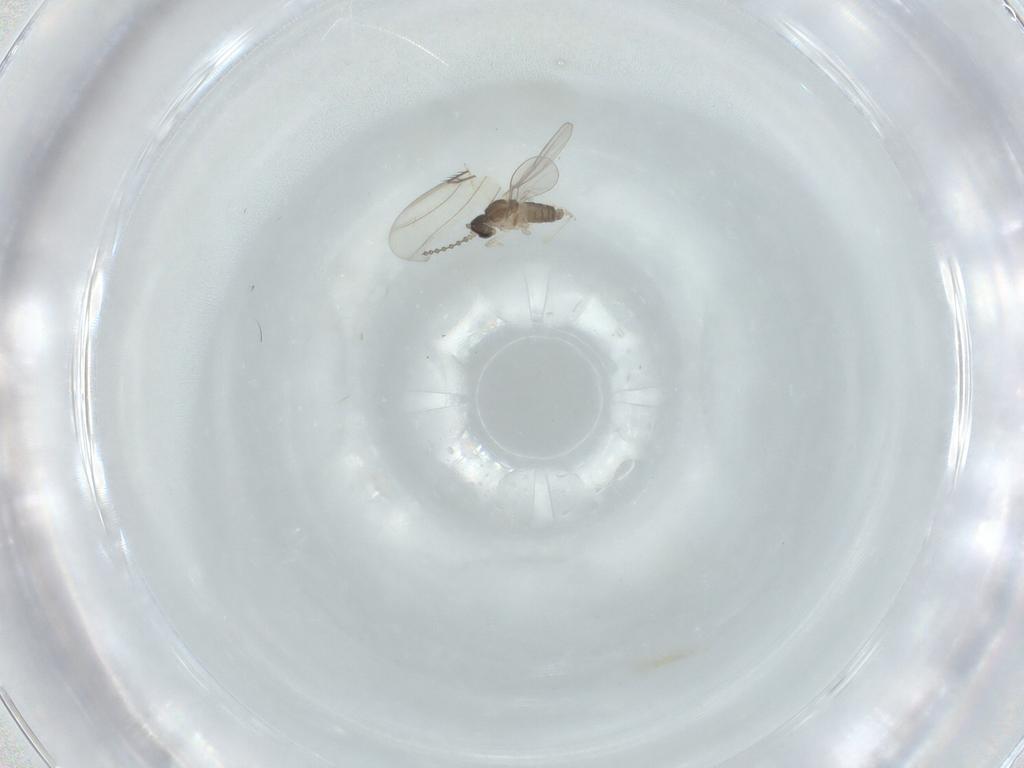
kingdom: Animalia
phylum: Arthropoda
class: Insecta
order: Diptera
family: Cecidomyiidae
